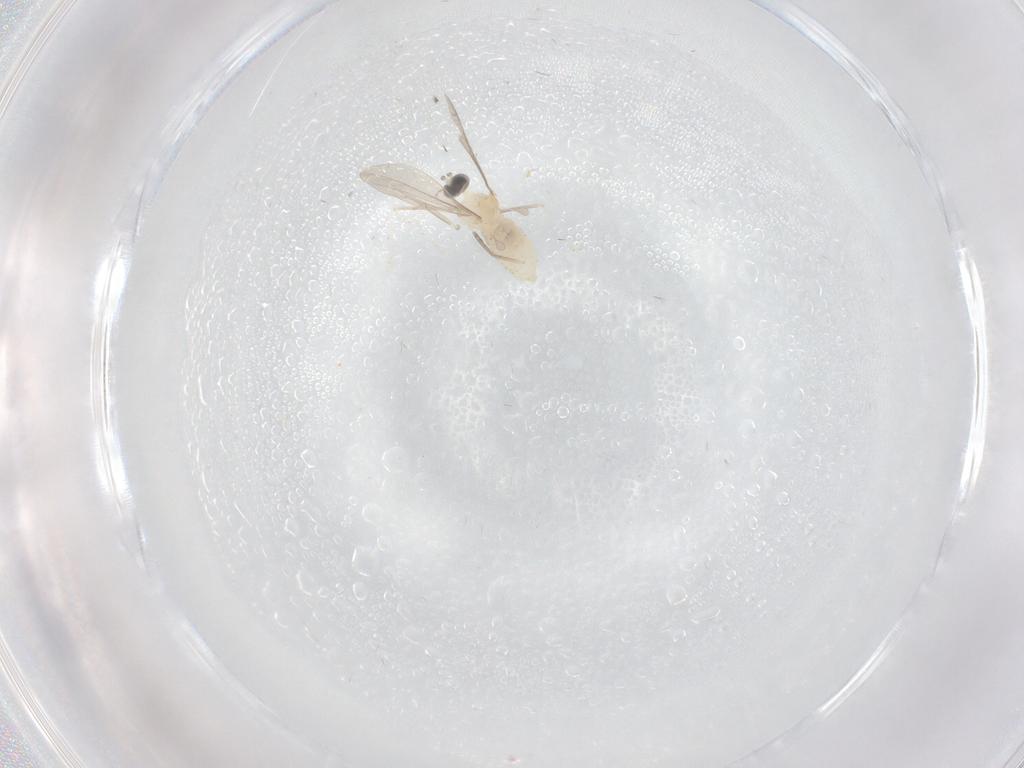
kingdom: Animalia
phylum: Arthropoda
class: Insecta
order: Diptera
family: Cecidomyiidae
